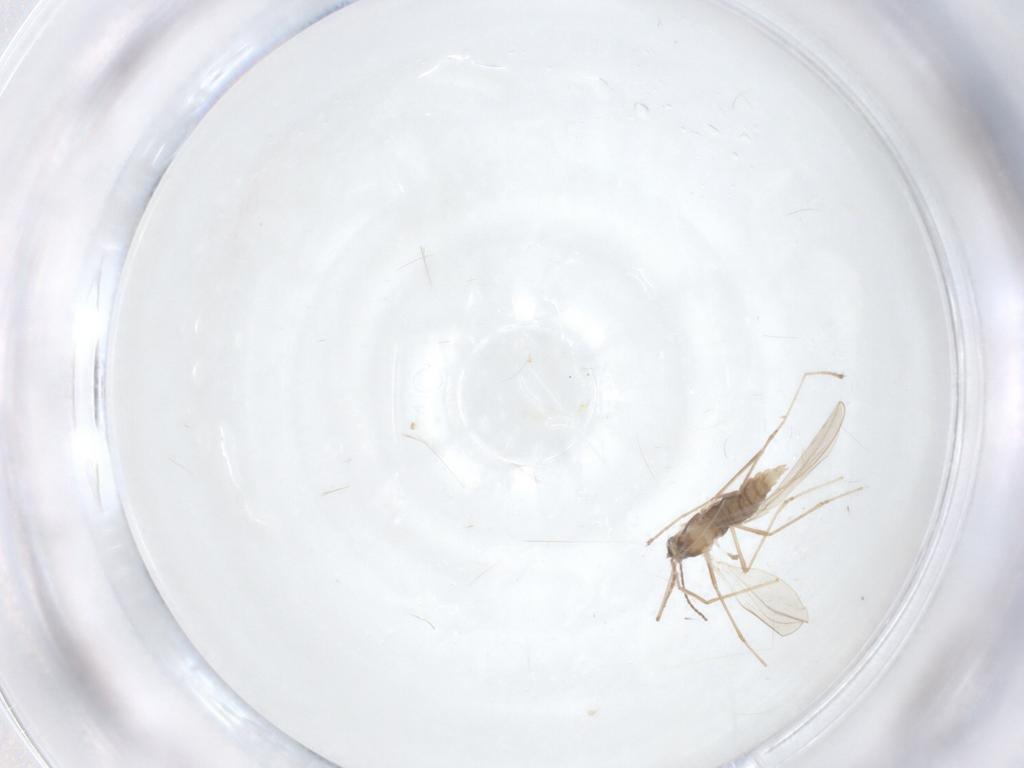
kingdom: Animalia
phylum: Arthropoda
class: Insecta
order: Diptera
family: Cecidomyiidae
